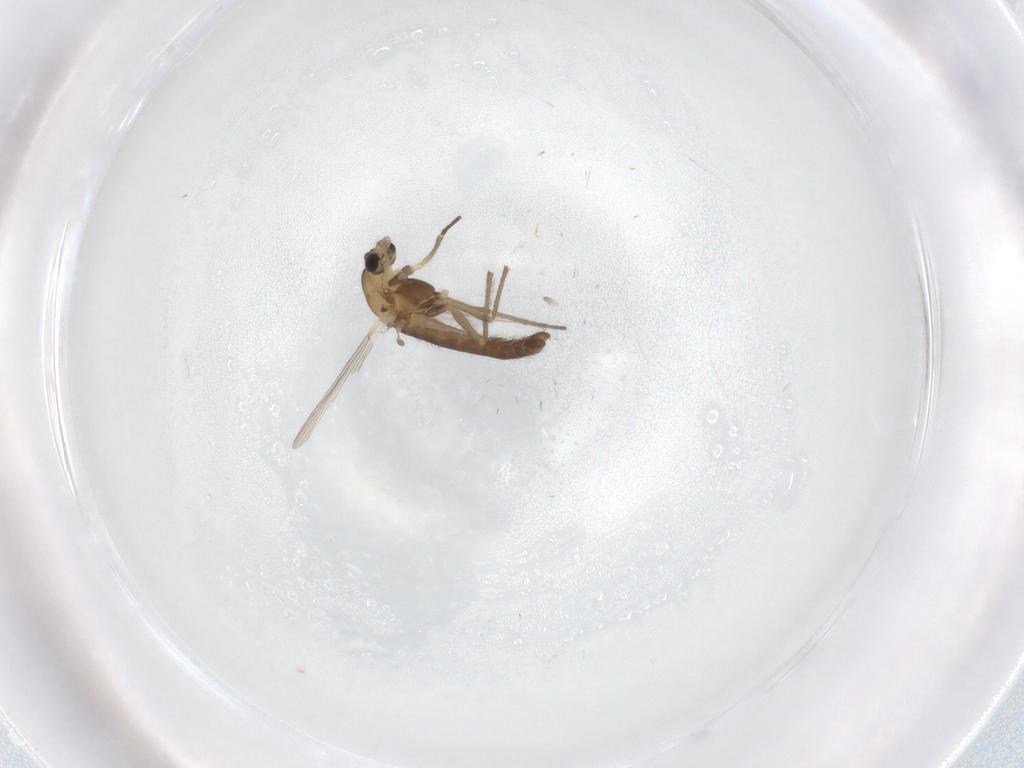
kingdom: Animalia
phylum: Arthropoda
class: Insecta
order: Diptera
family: Chironomidae
